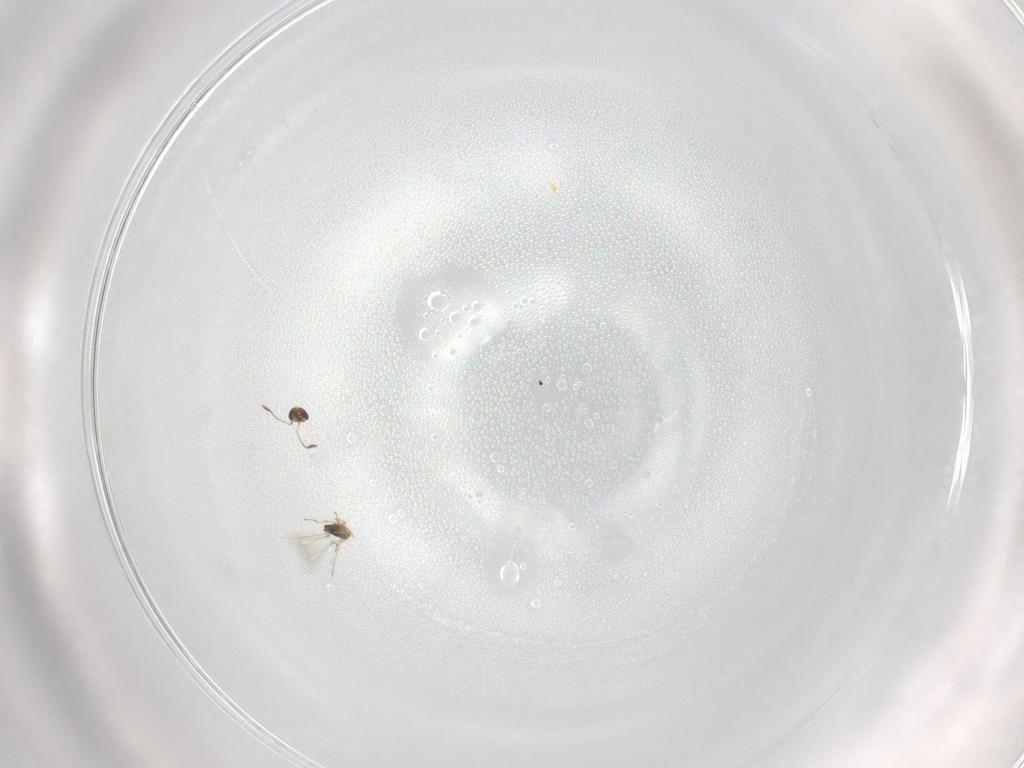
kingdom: Animalia
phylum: Arthropoda
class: Insecta
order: Hymenoptera
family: Mymaridae
